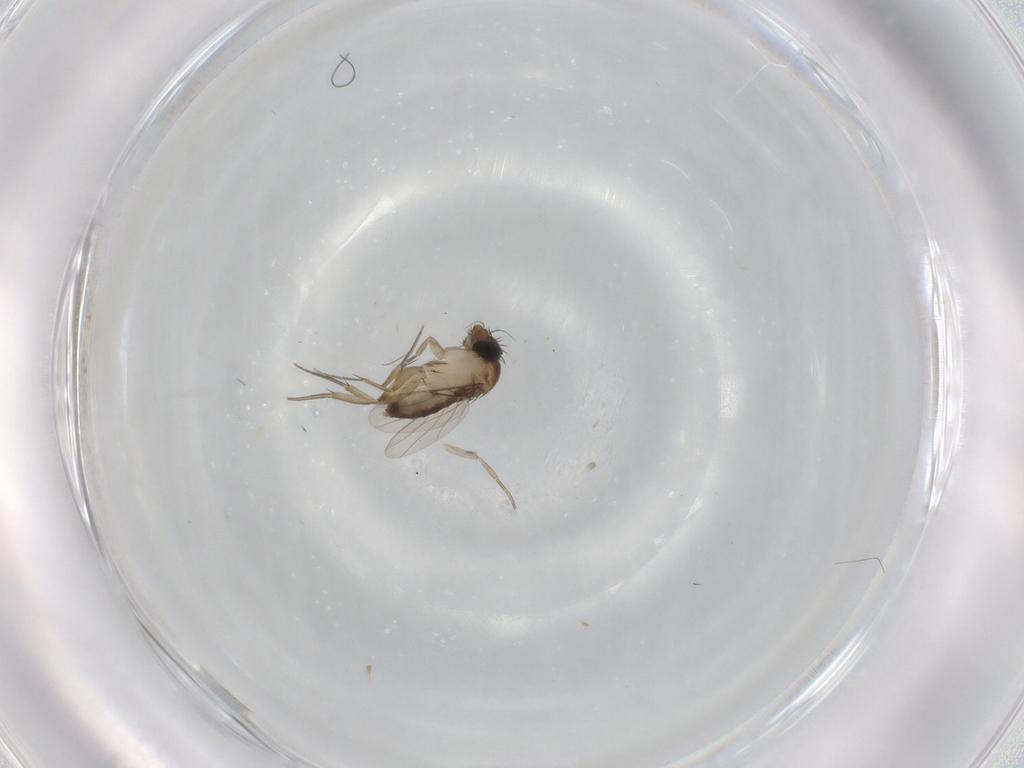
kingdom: Animalia
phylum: Arthropoda
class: Insecta
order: Diptera
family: Phoridae
